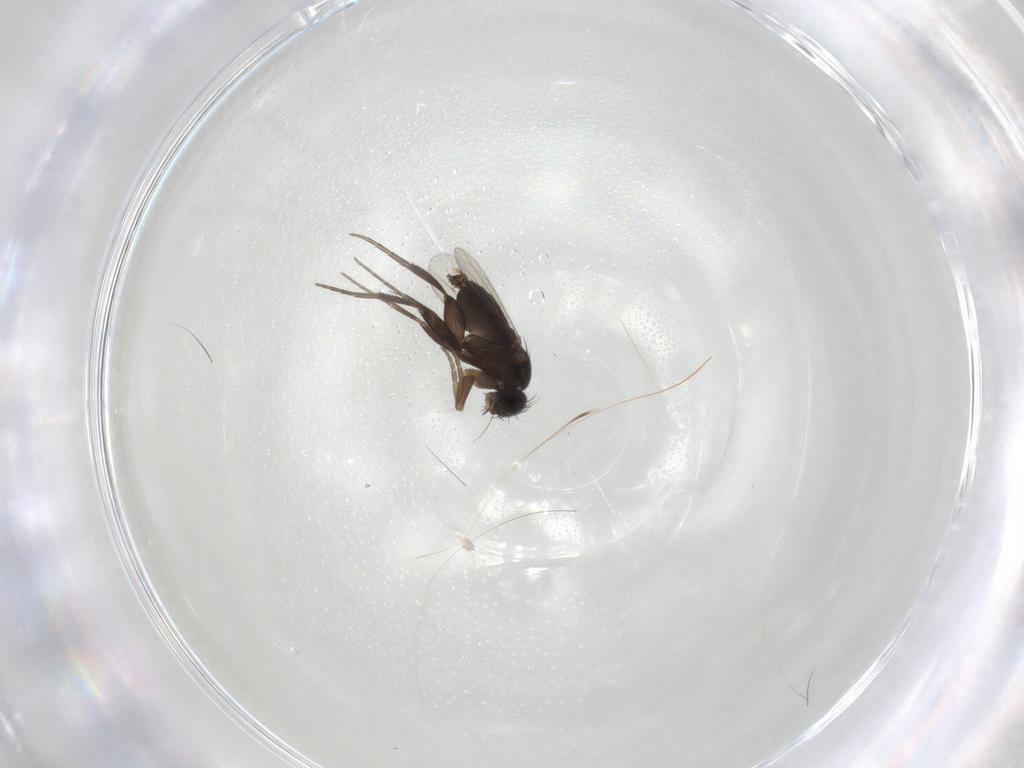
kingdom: Animalia
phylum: Arthropoda
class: Insecta
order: Diptera
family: Phoridae
